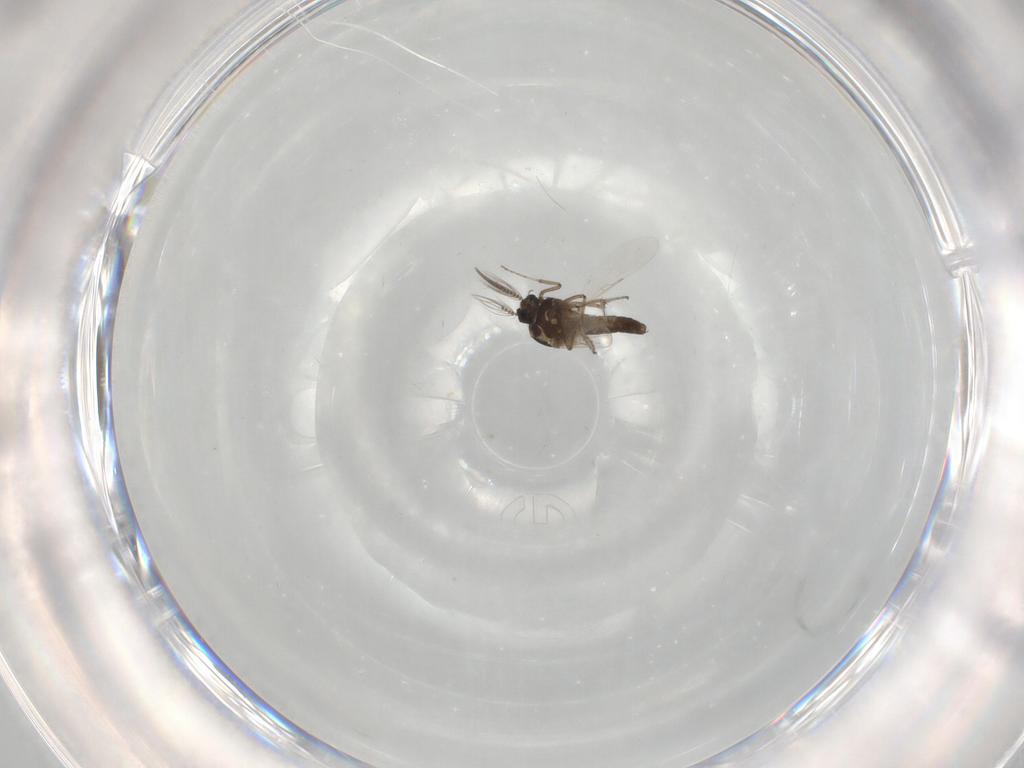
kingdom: Animalia
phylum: Arthropoda
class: Insecta
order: Diptera
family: Ceratopogonidae
